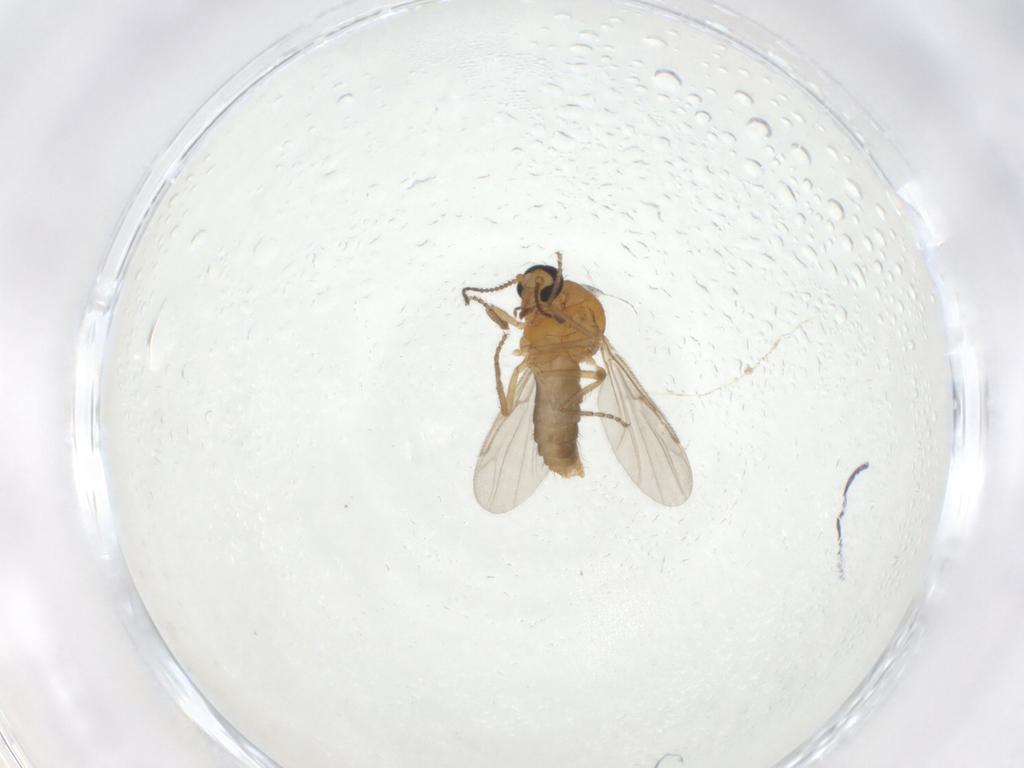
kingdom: Animalia
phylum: Arthropoda
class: Insecta
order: Diptera
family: Ceratopogonidae
